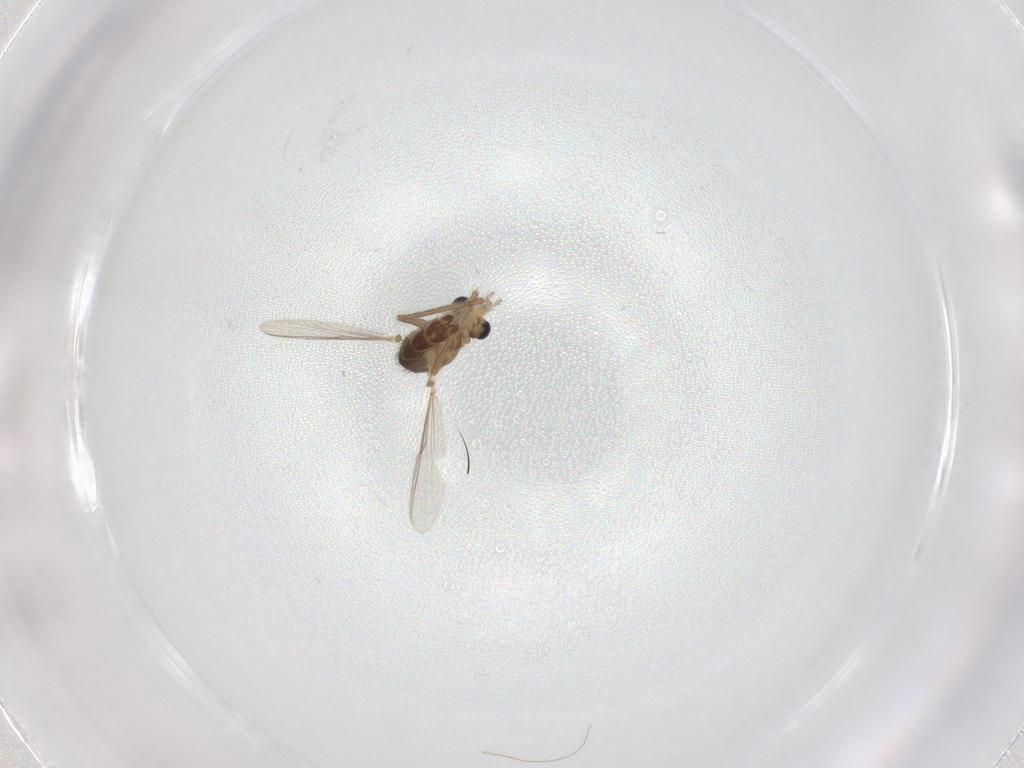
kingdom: Animalia
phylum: Arthropoda
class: Insecta
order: Diptera
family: Chironomidae
